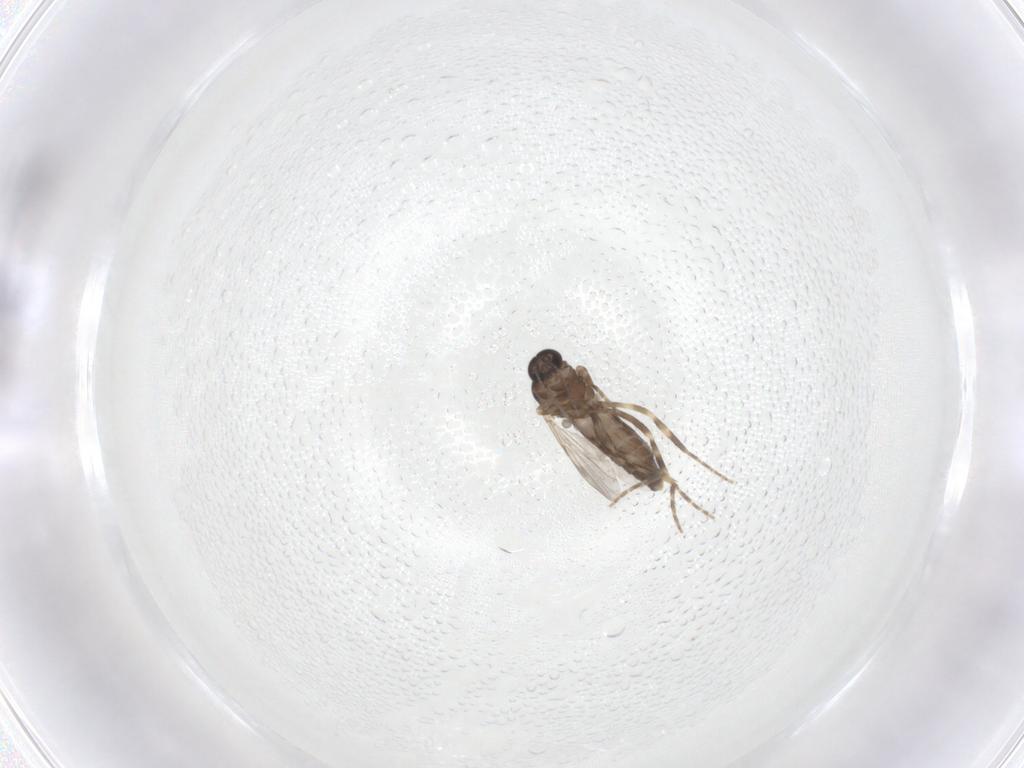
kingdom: Animalia
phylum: Arthropoda
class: Insecta
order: Diptera
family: Ceratopogonidae
